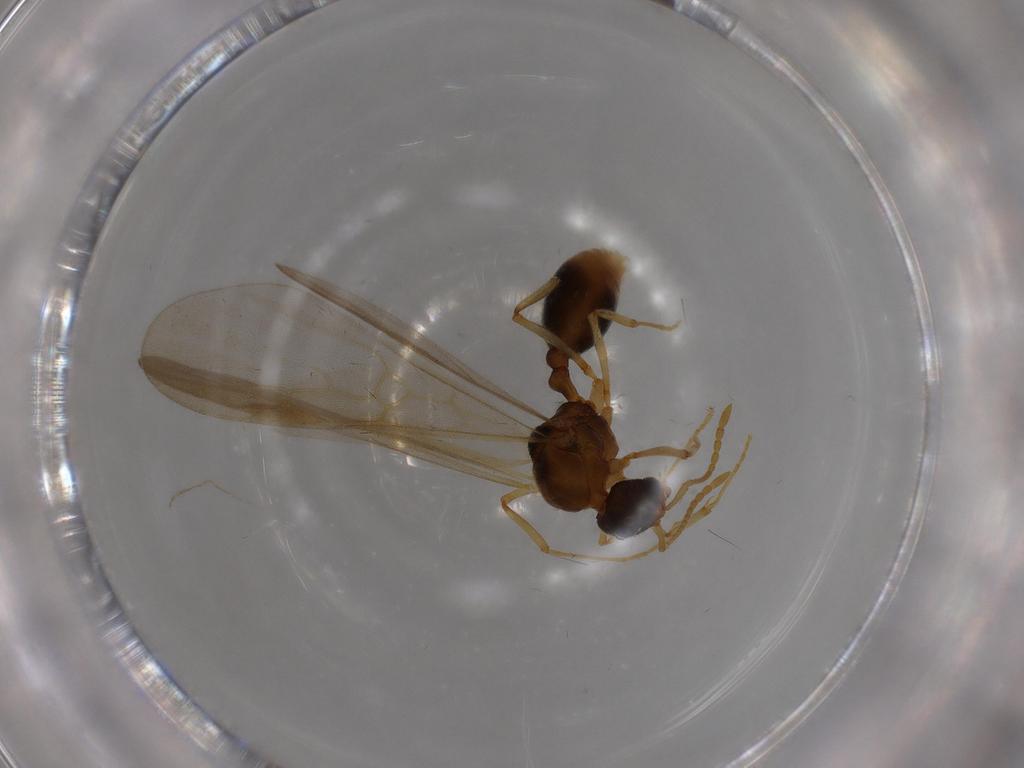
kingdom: Animalia
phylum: Arthropoda
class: Insecta
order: Hymenoptera
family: Formicidae
